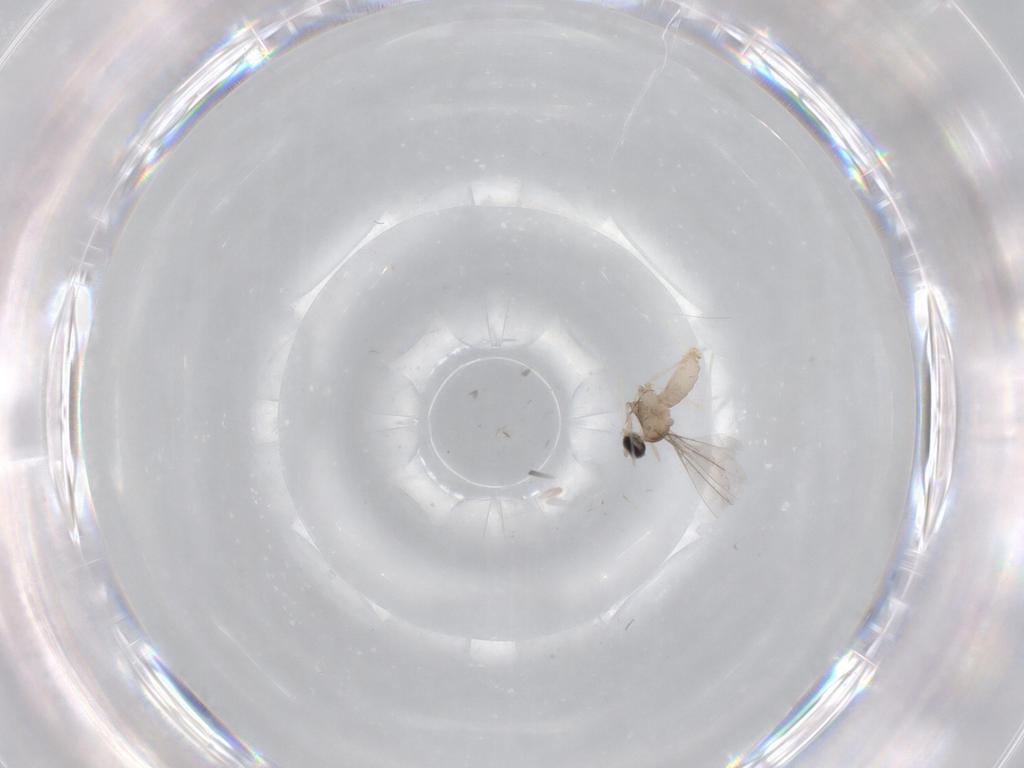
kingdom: Animalia
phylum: Arthropoda
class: Insecta
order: Diptera
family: Cecidomyiidae
